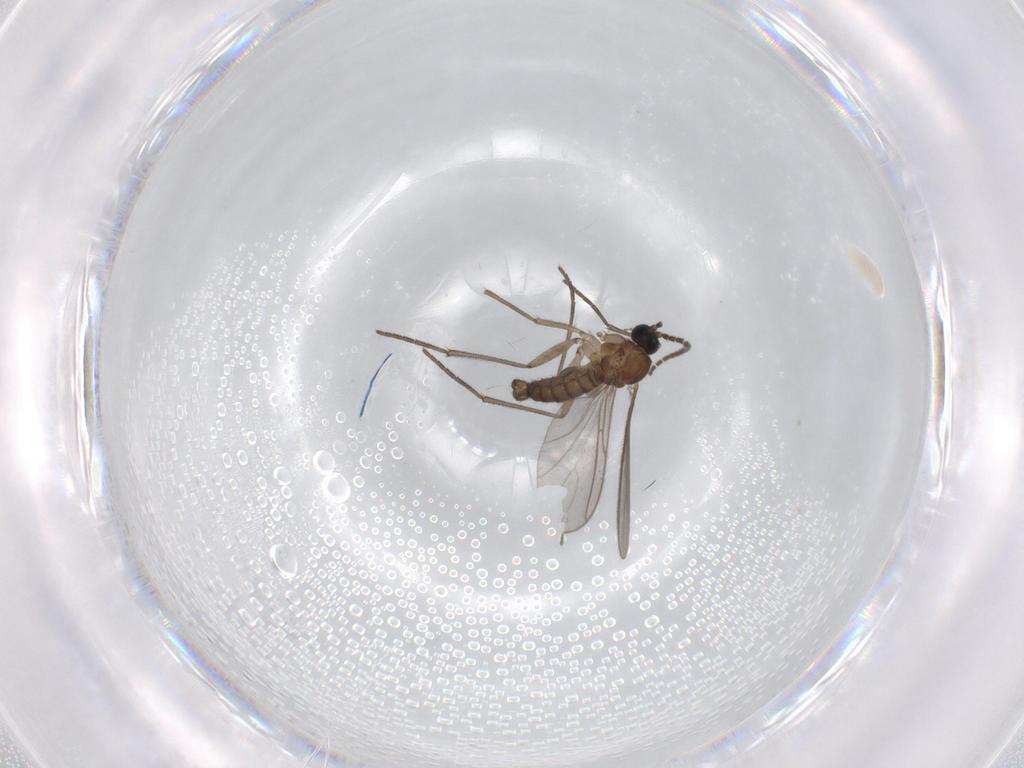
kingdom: Animalia
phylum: Arthropoda
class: Insecta
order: Diptera
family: Sciaridae
